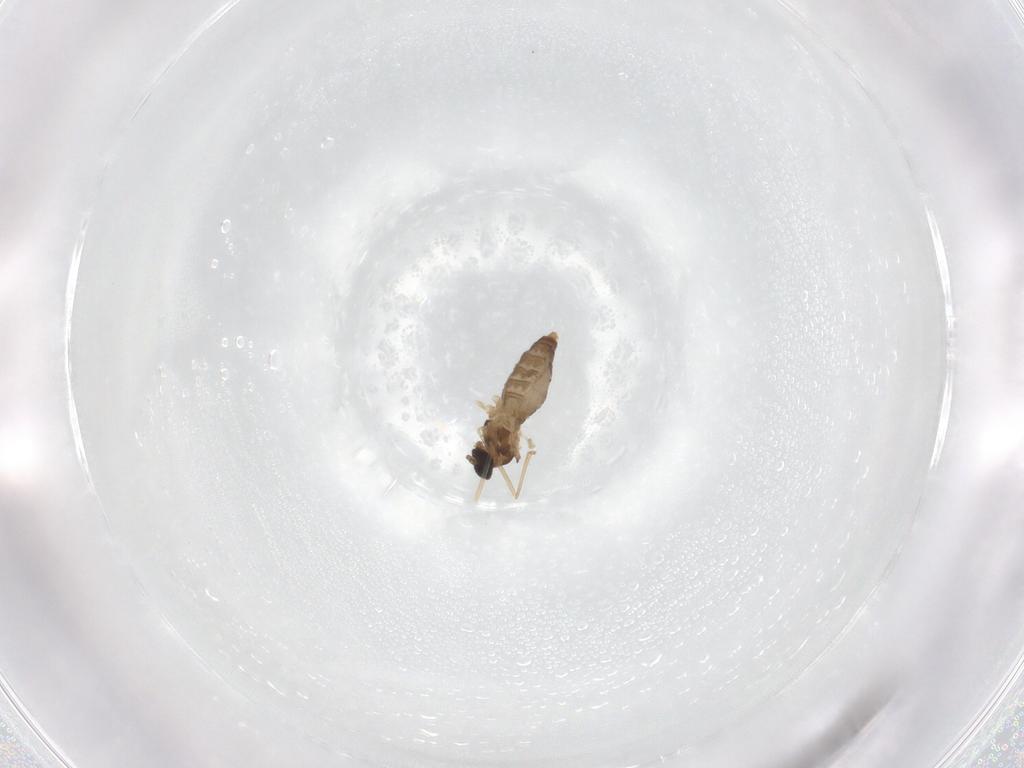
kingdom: Animalia
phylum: Arthropoda
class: Insecta
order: Diptera
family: Cecidomyiidae
